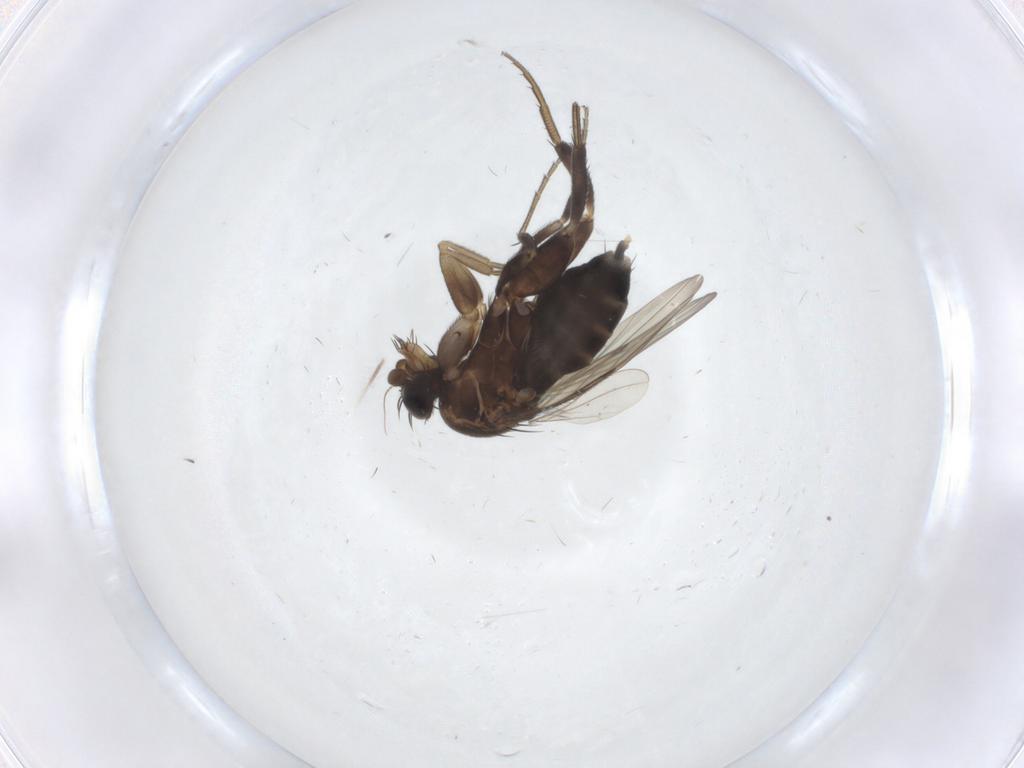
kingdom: Animalia
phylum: Arthropoda
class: Insecta
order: Diptera
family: Phoridae
